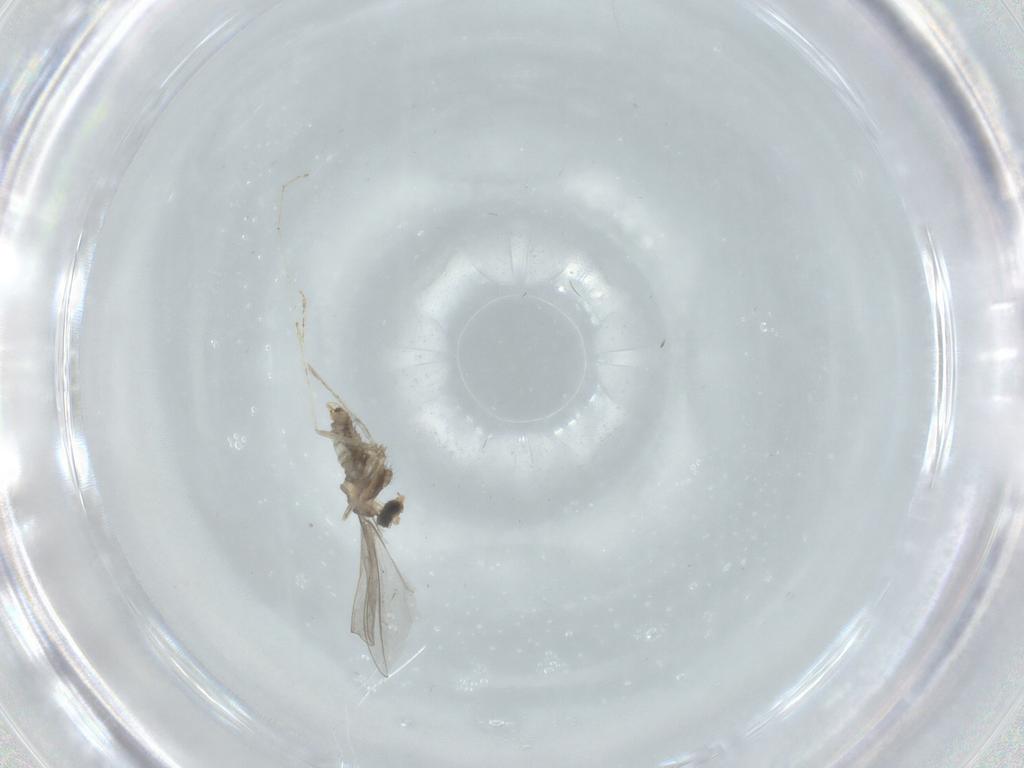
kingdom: Animalia
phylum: Arthropoda
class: Insecta
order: Diptera
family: Cecidomyiidae
